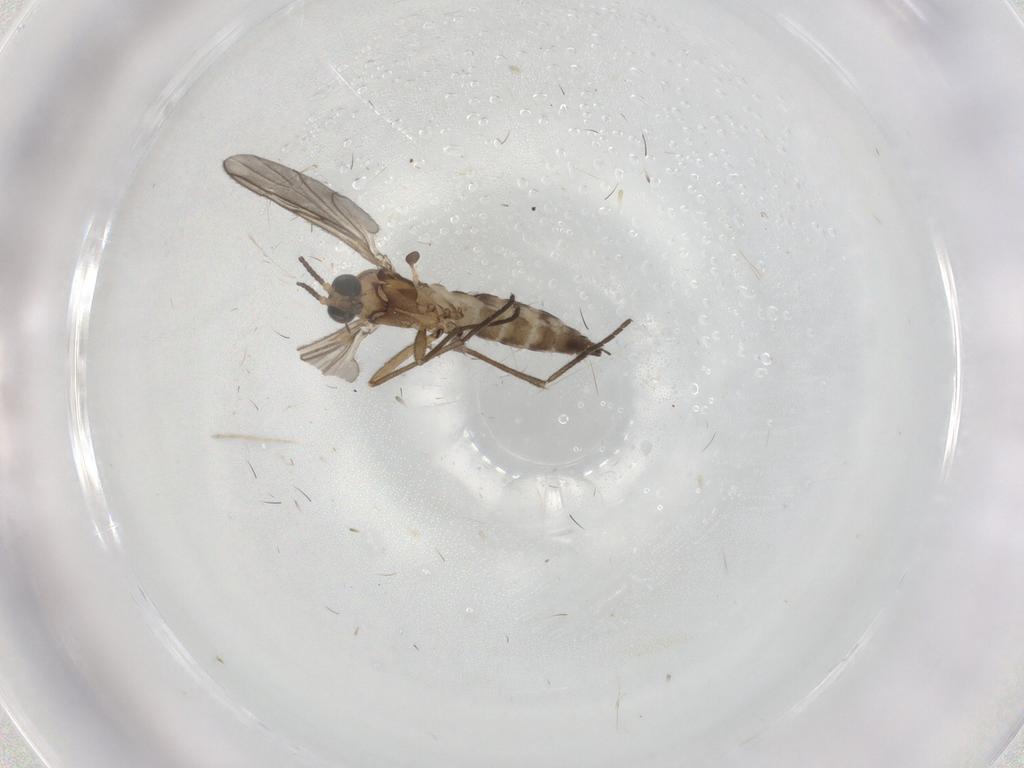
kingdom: Animalia
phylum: Arthropoda
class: Insecta
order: Diptera
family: Sciaridae
